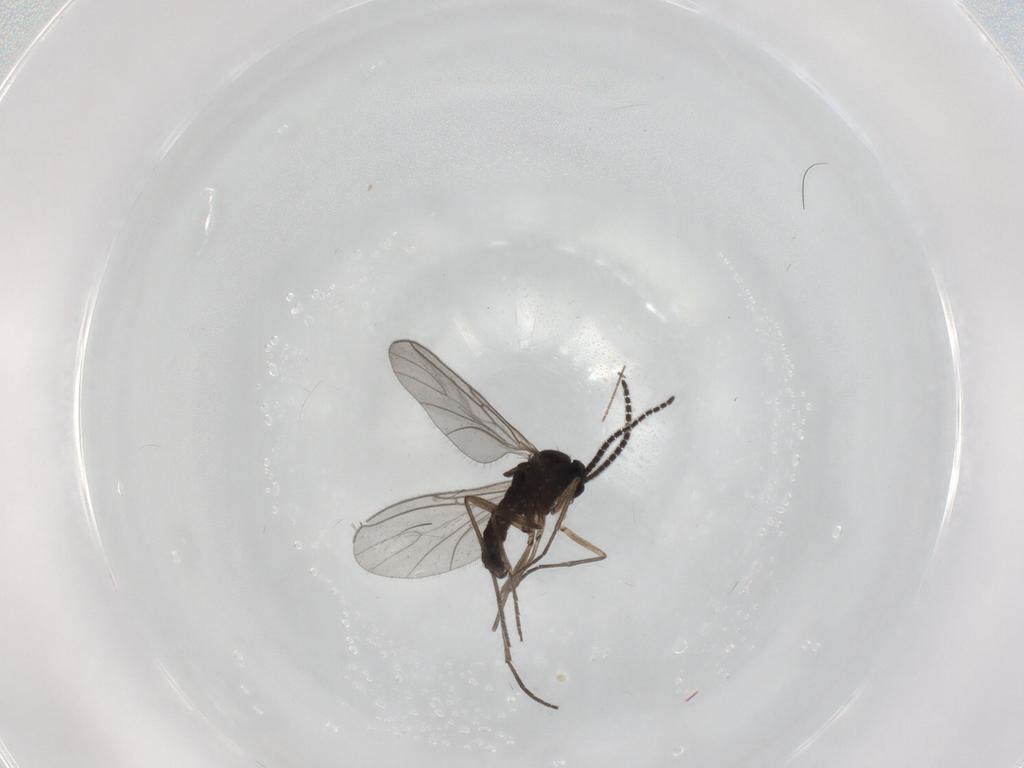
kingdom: Animalia
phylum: Arthropoda
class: Insecta
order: Diptera
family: Sciaridae
